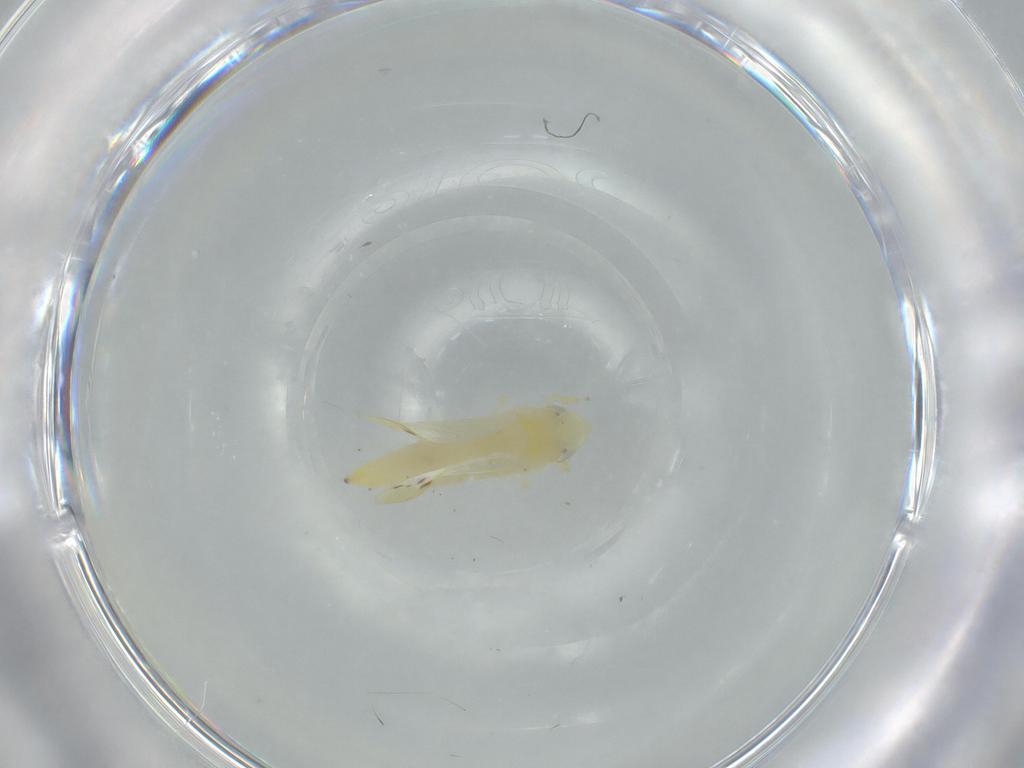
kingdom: Animalia
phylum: Arthropoda
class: Insecta
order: Hemiptera
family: Cicadellidae
